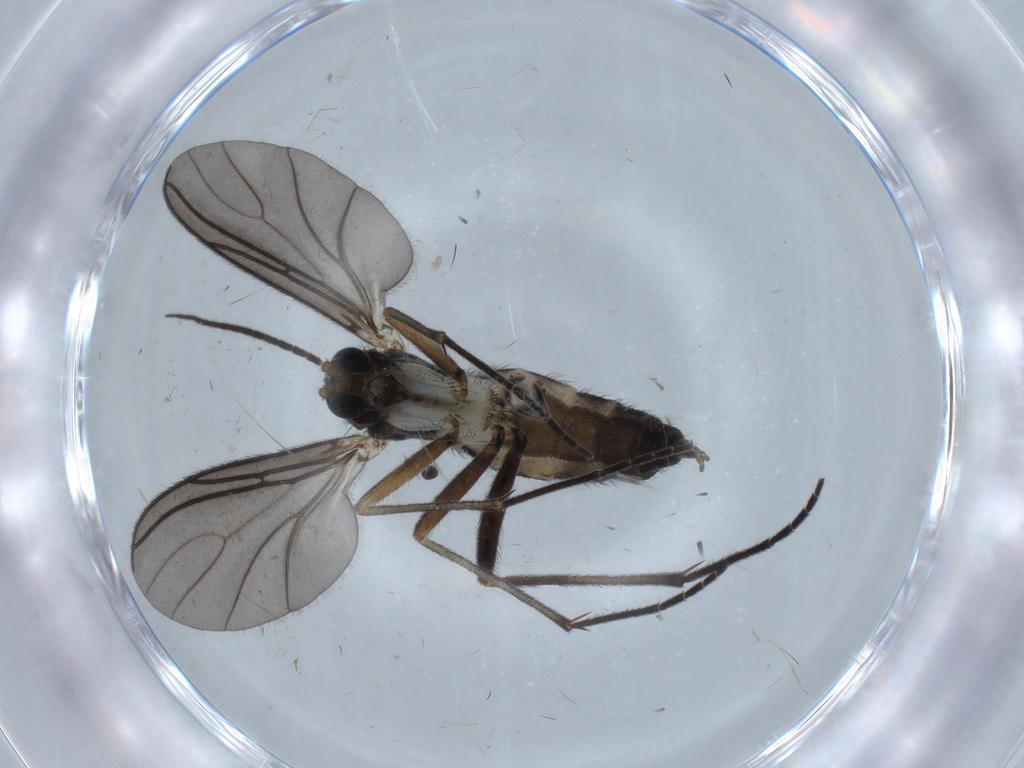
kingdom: Animalia
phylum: Arthropoda
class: Insecta
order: Diptera
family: Sciaridae
